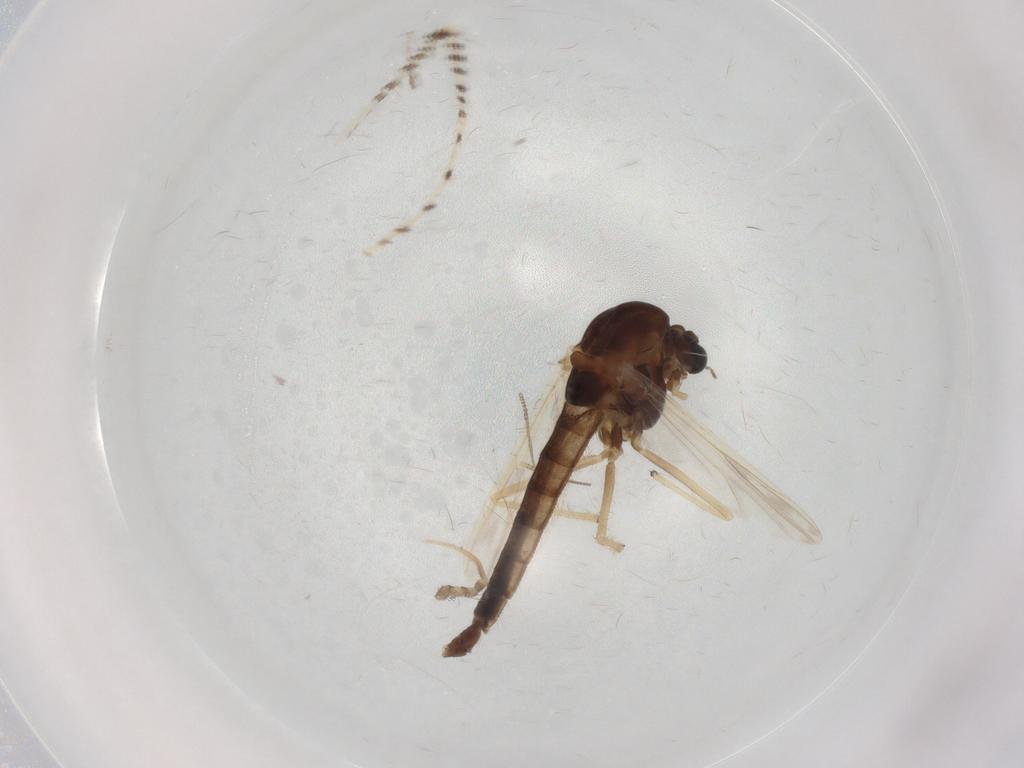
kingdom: Animalia
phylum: Arthropoda
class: Insecta
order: Diptera
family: Chironomidae
